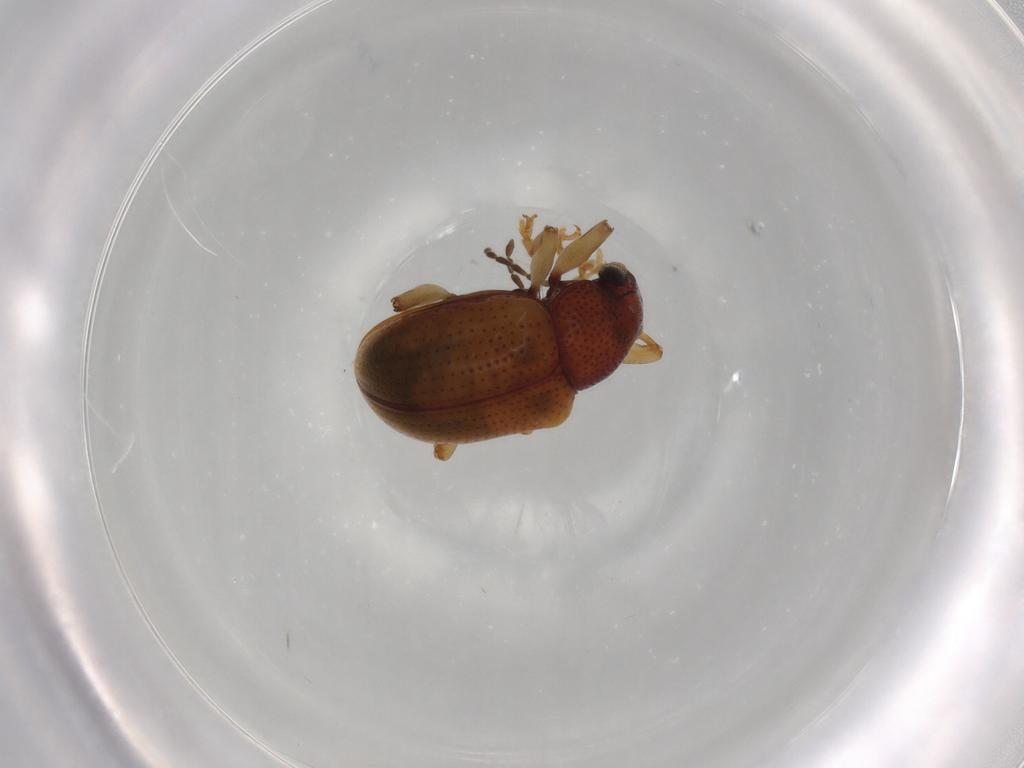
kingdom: Animalia
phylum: Arthropoda
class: Insecta
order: Coleoptera
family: Chrysomelidae
